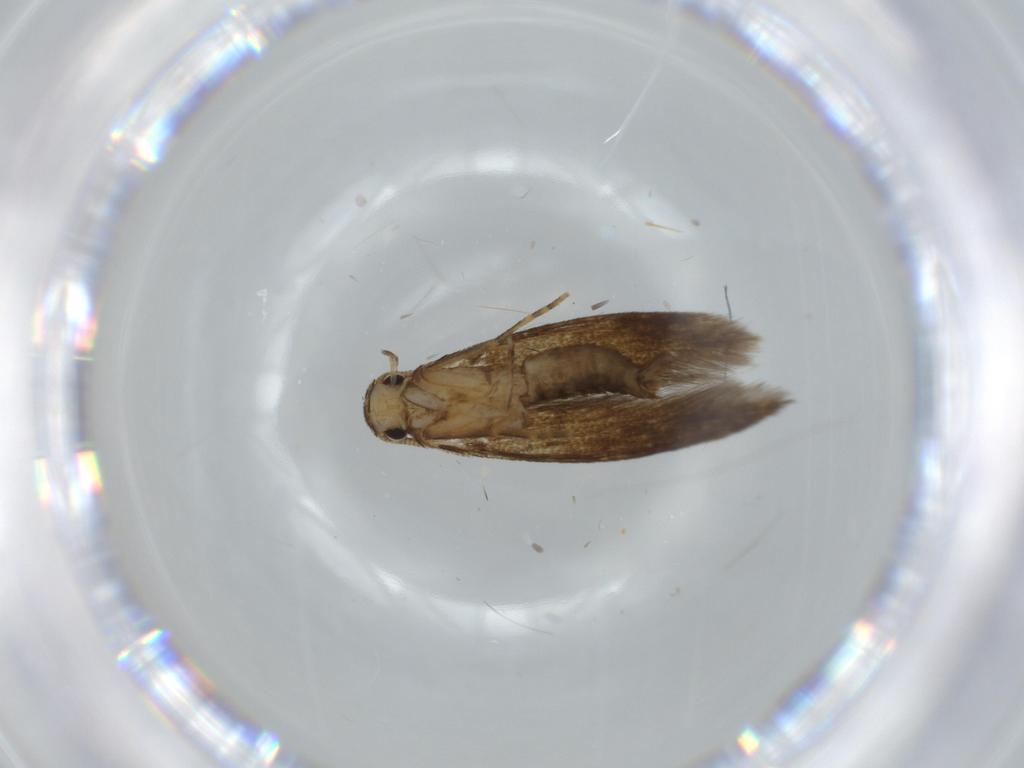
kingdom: Animalia
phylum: Arthropoda
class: Insecta
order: Lepidoptera
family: Tineidae
